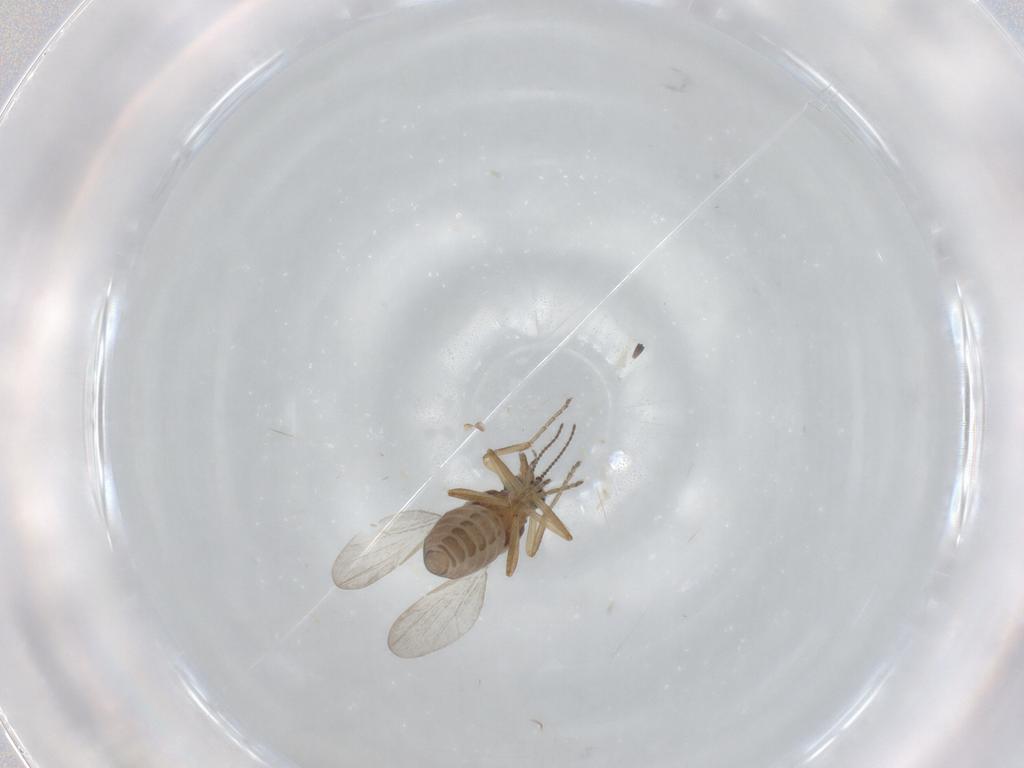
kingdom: Animalia
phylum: Arthropoda
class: Insecta
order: Diptera
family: Ceratopogonidae
